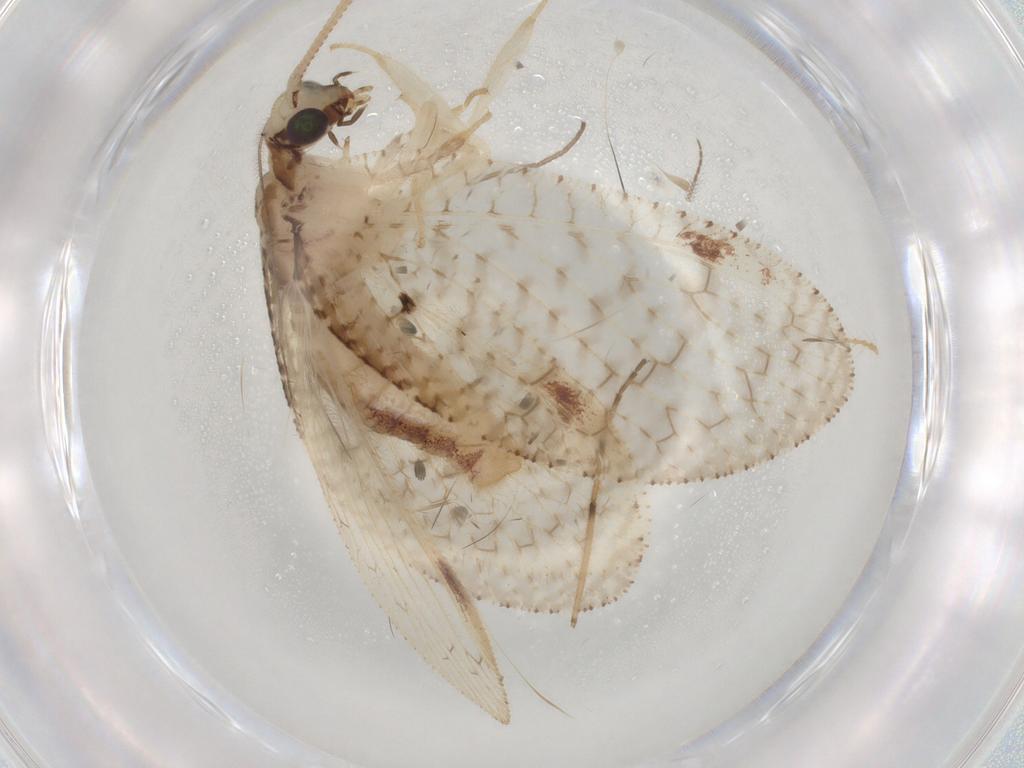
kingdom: Animalia
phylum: Arthropoda
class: Insecta
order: Neuroptera
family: Hemerobiidae
